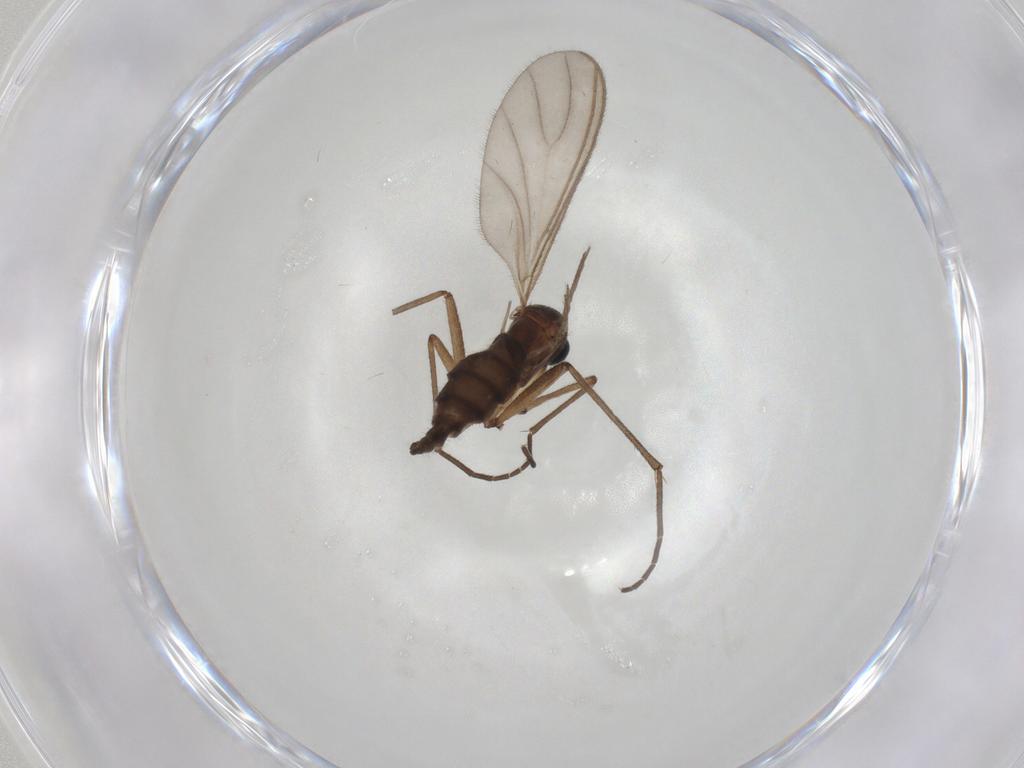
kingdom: Animalia
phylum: Arthropoda
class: Insecta
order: Diptera
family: Sciaridae
